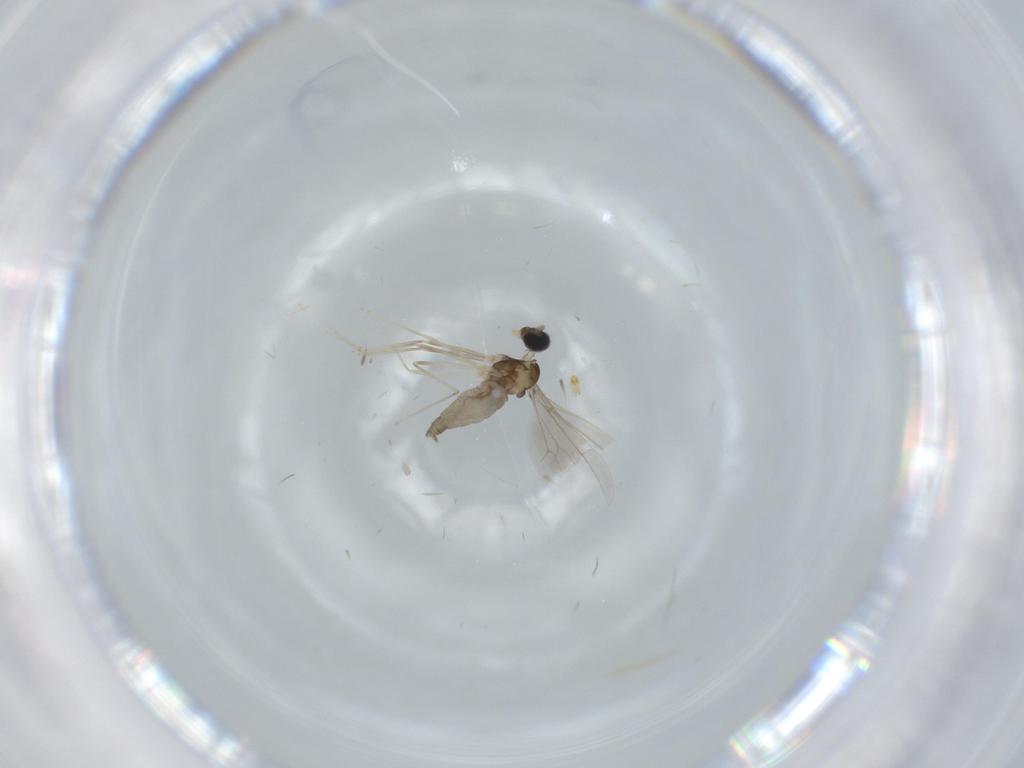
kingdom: Animalia
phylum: Arthropoda
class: Insecta
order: Diptera
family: Cecidomyiidae
